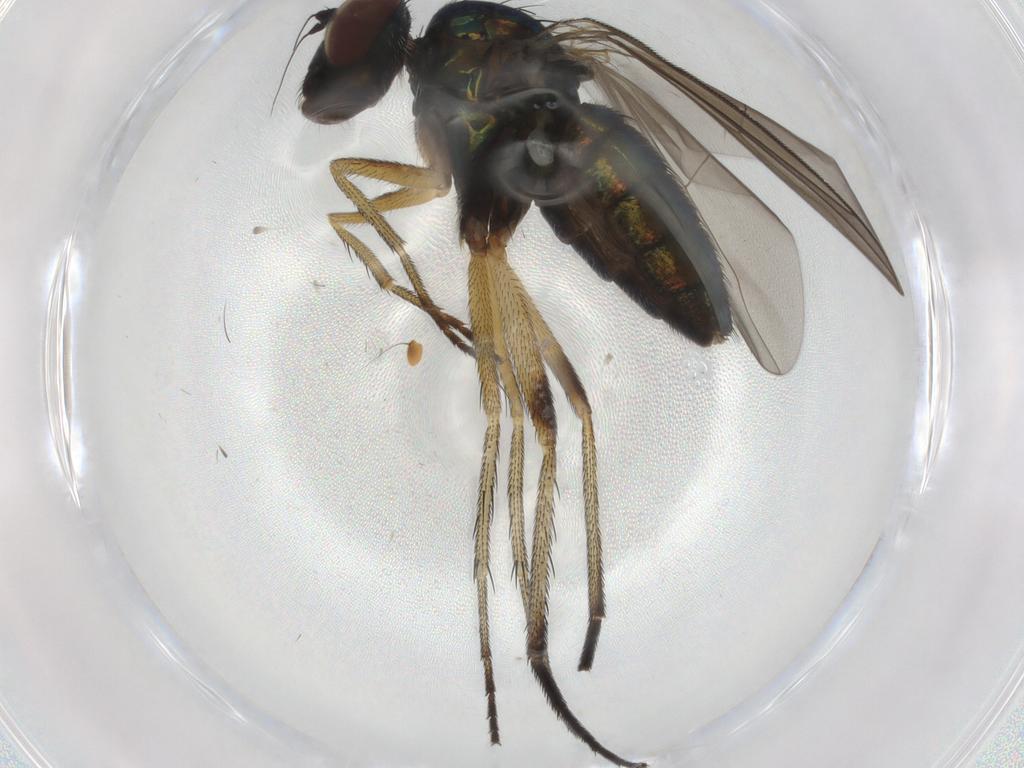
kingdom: Animalia
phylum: Arthropoda
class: Insecta
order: Diptera
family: Dolichopodidae
